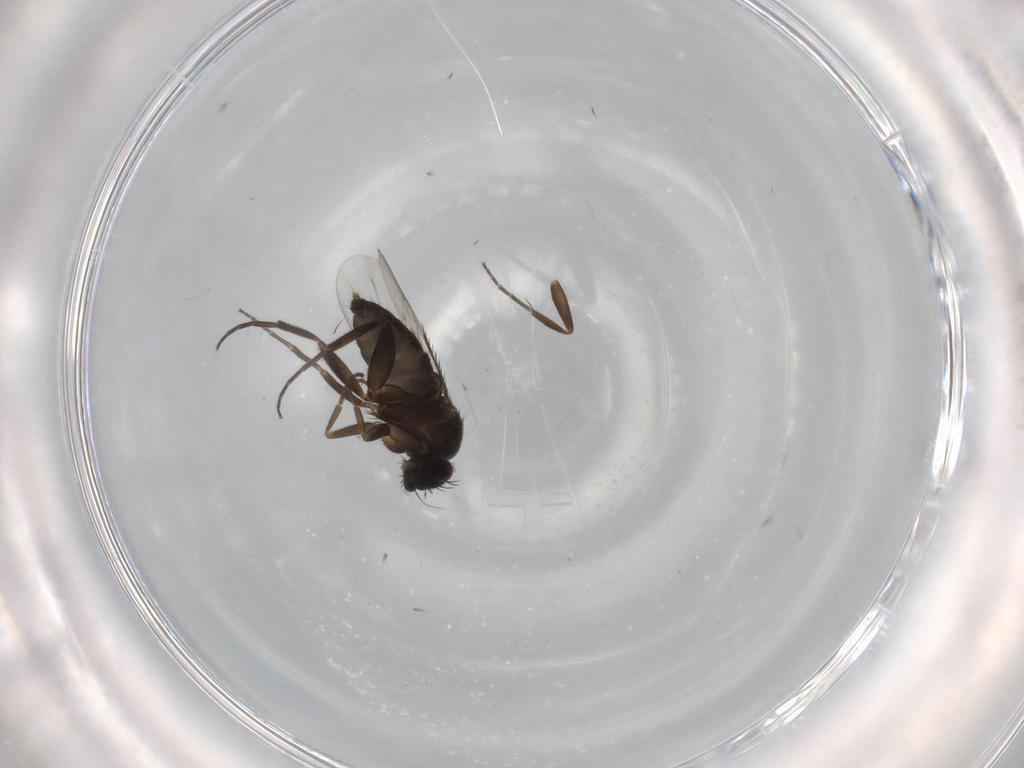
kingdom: Animalia
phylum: Arthropoda
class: Insecta
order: Diptera
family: Phoridae
